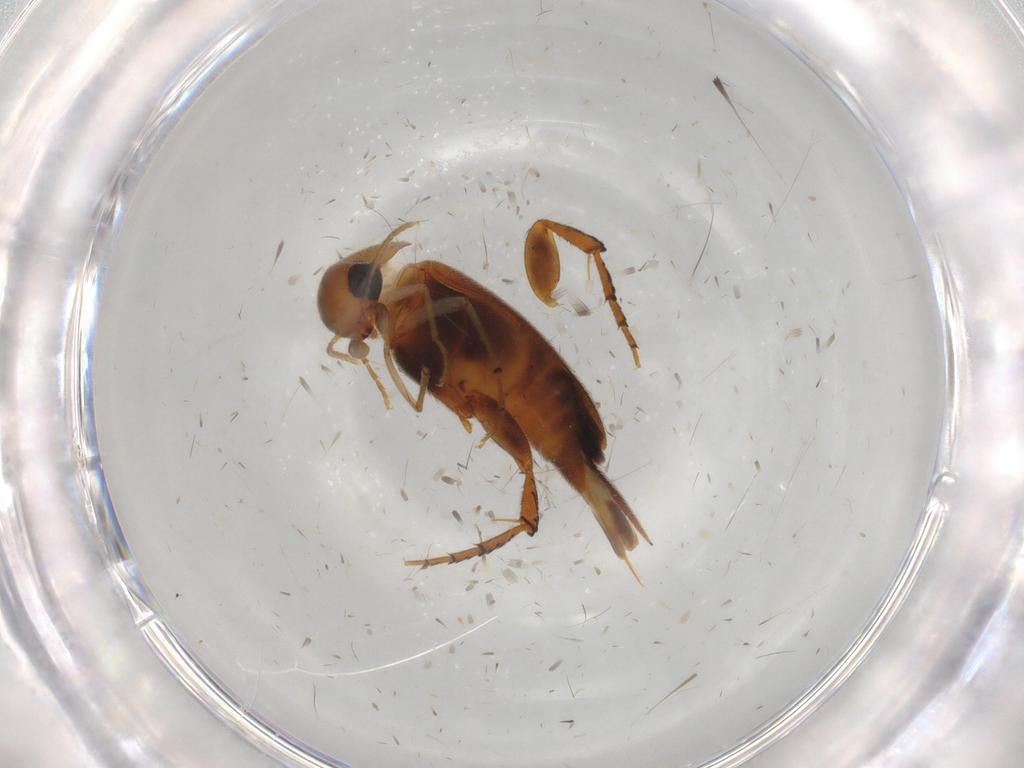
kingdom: Animalia
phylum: Arthropoda
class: Insecta
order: Coleoptera
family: Mordellidae
